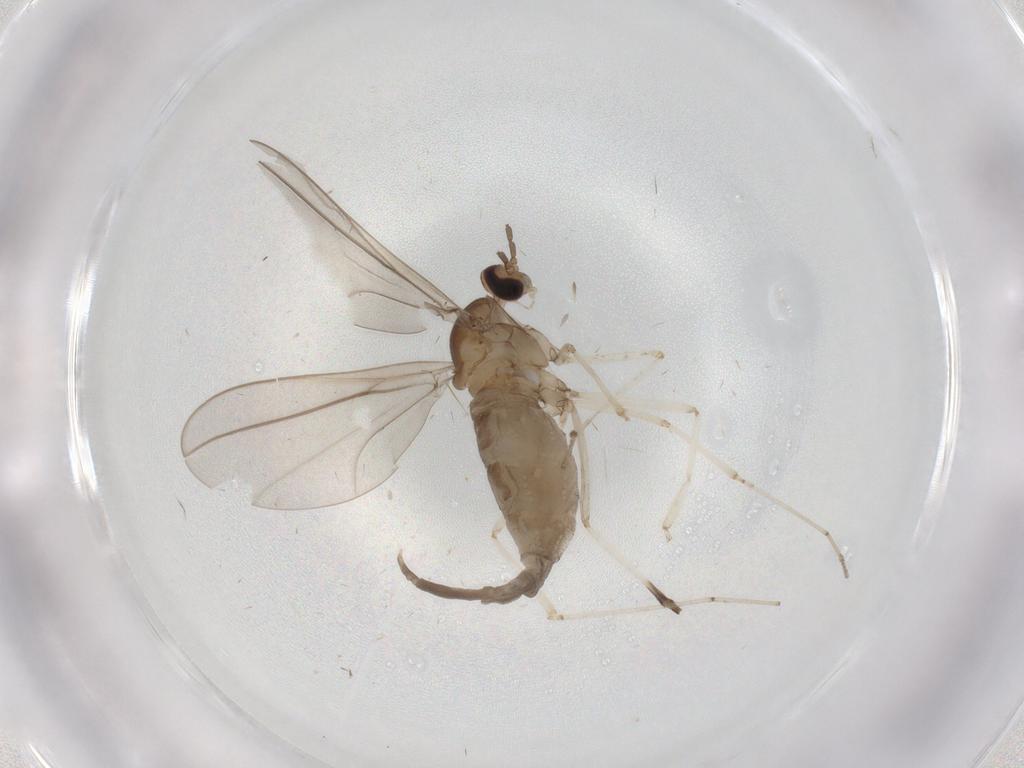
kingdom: Animalia
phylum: Arthropoda
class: Insecta
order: Diptera
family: Cecidomyiidae
